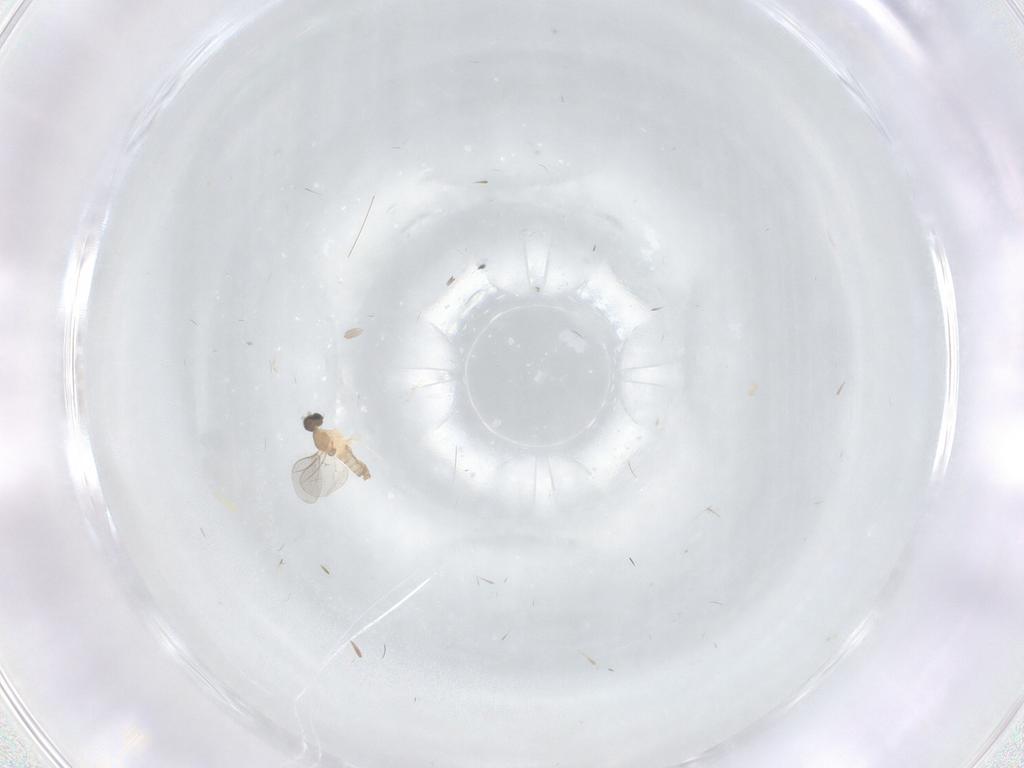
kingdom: Animalia
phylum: Arthropoda
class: Insecta
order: Diptera
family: Cecidomyiidae
